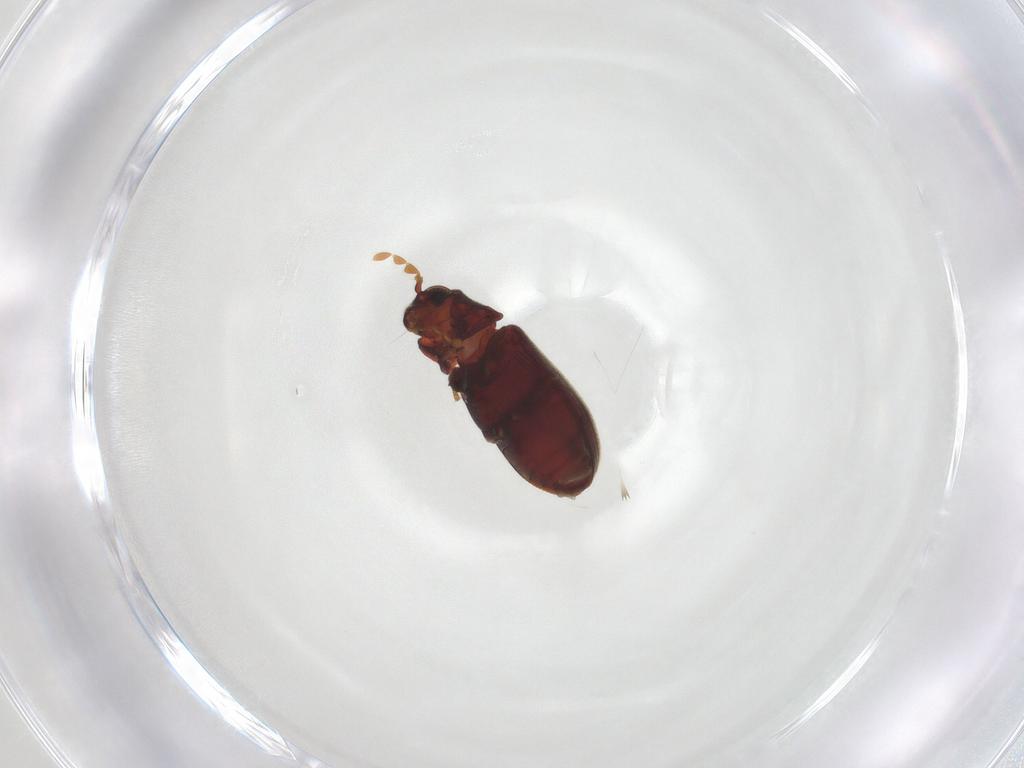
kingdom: Animalia
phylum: Arthropoda
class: Insecta
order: Coleoptera
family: Anobiidae
